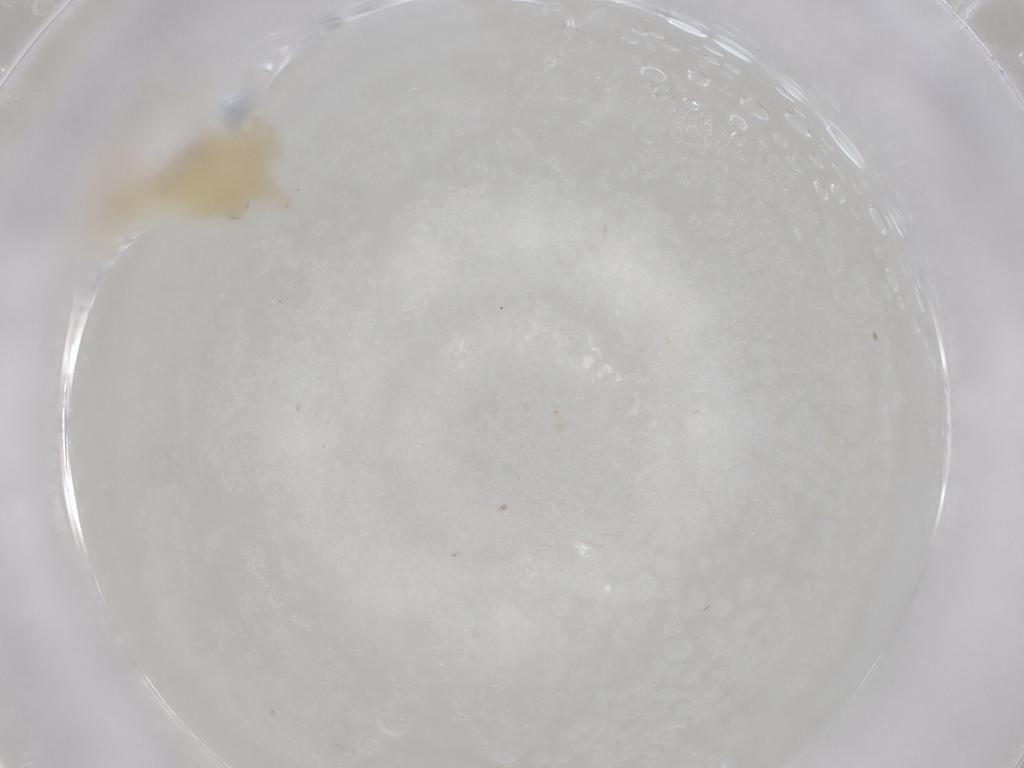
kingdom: Animalia
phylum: Arthropoda
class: Insecta
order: Hemiptera
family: Cicadellidae
